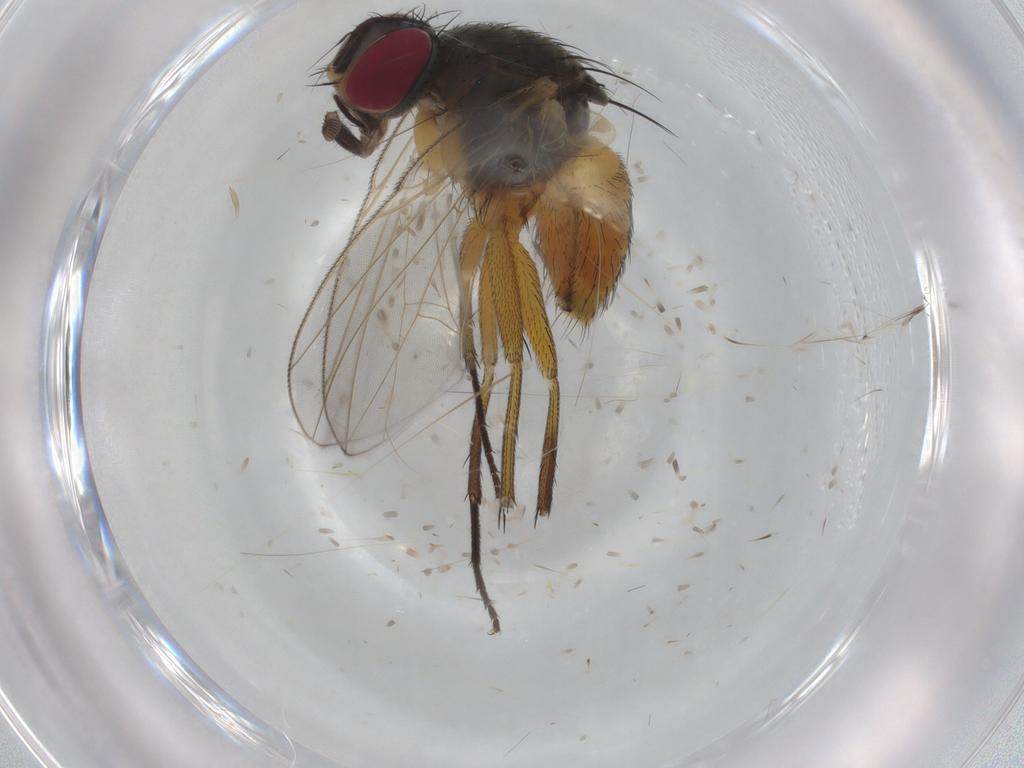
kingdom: Animalia
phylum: Arthropoda
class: Insecta
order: Diptera
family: Muscidae
